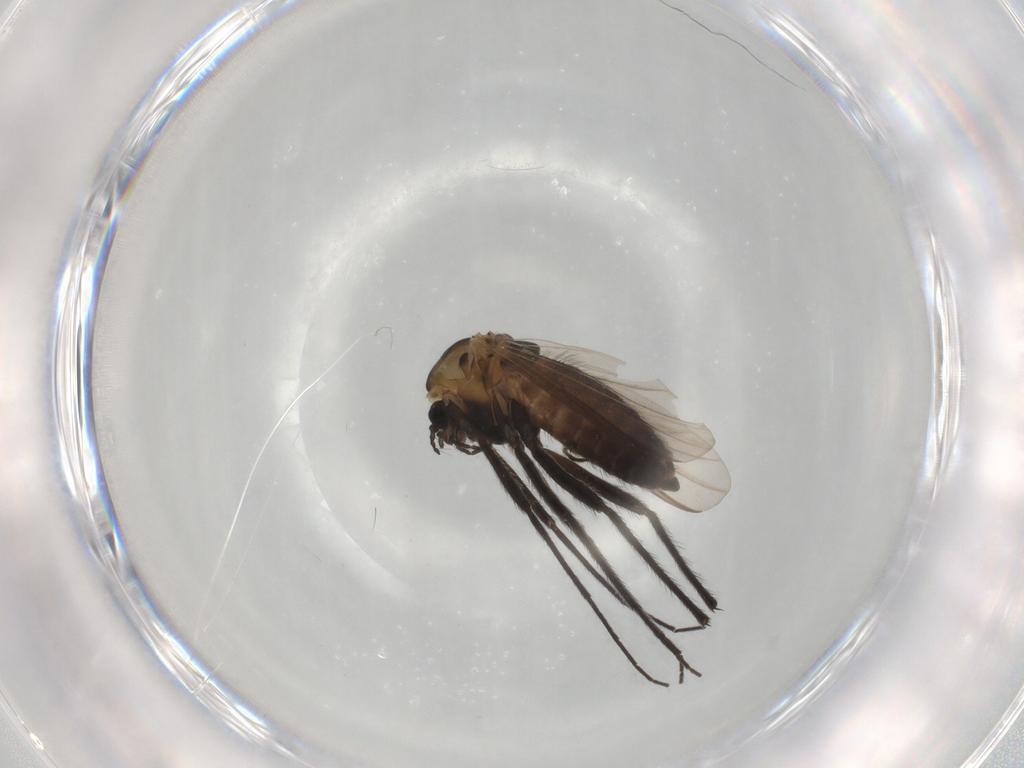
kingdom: Animalia
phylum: Arthropoda
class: Insecta
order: Diptera
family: Chironomidae
